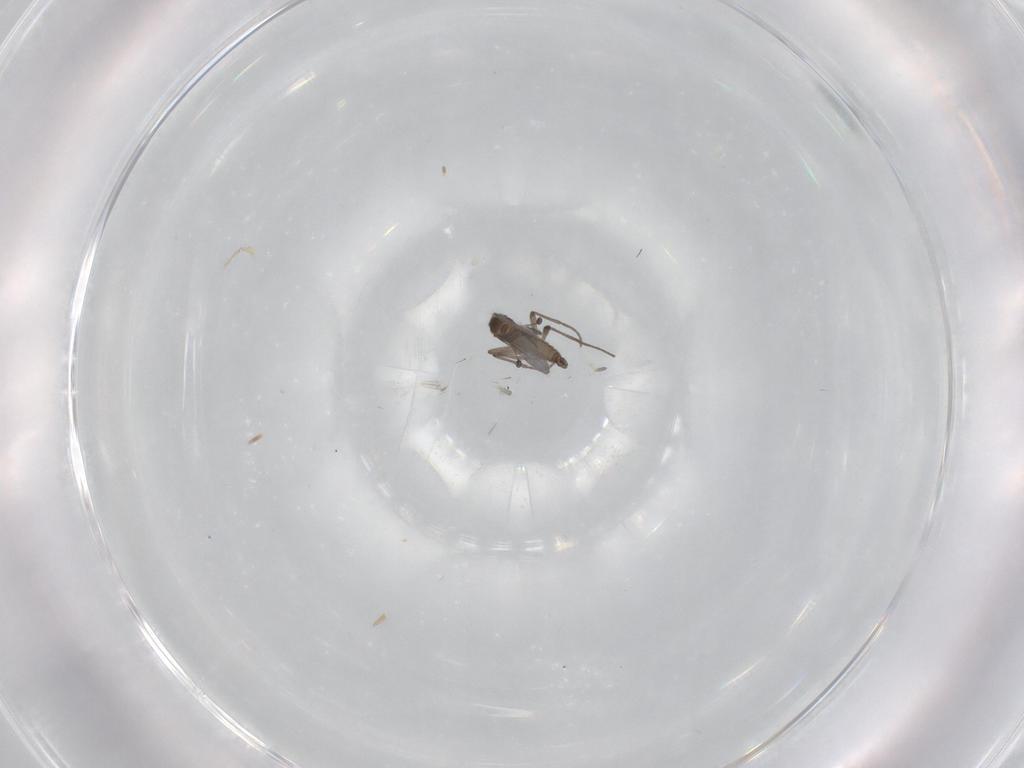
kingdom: Animalia
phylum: Arthropoda
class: Insecta
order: Diptera
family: Sciaridae
